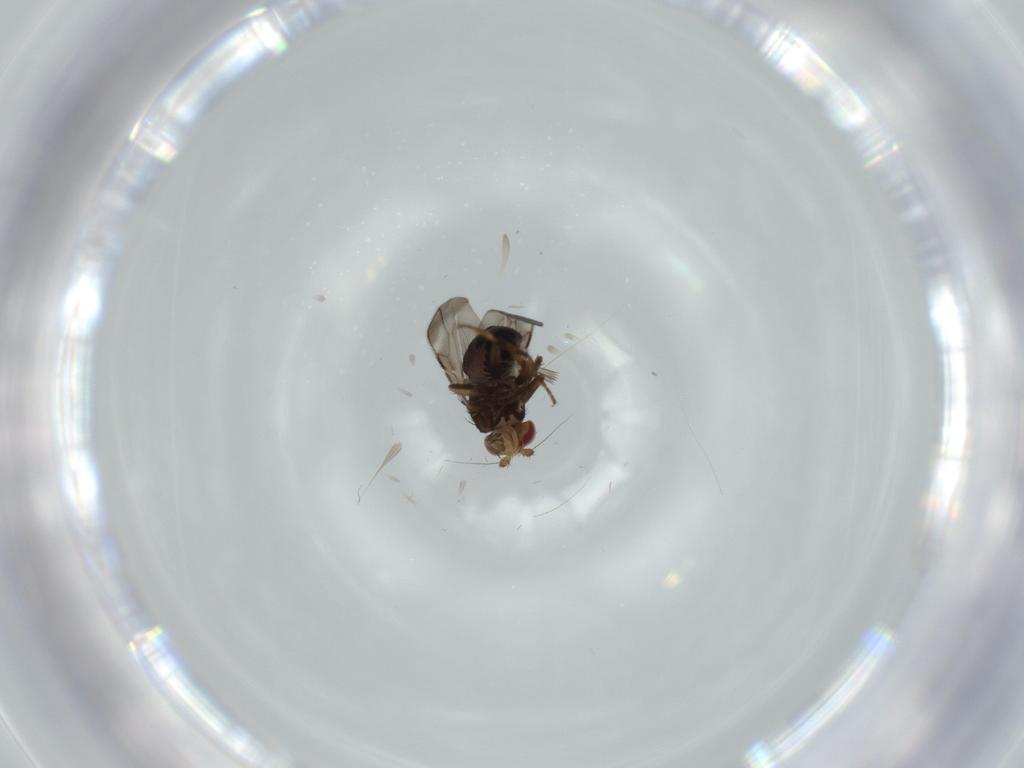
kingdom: Animalia
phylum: Arthropoda
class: Insecta
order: Diptera
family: Sphaeroceridae
